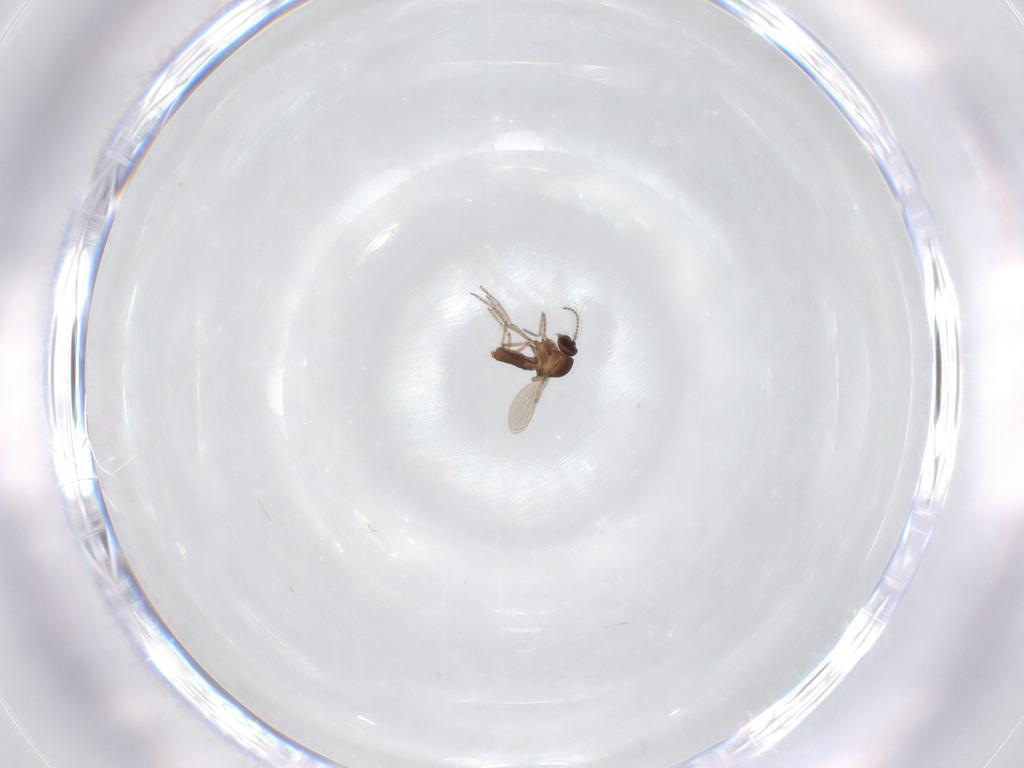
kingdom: Animalia
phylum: Arthropoda
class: Insecta
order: Diptera
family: Ceratopogonidae
